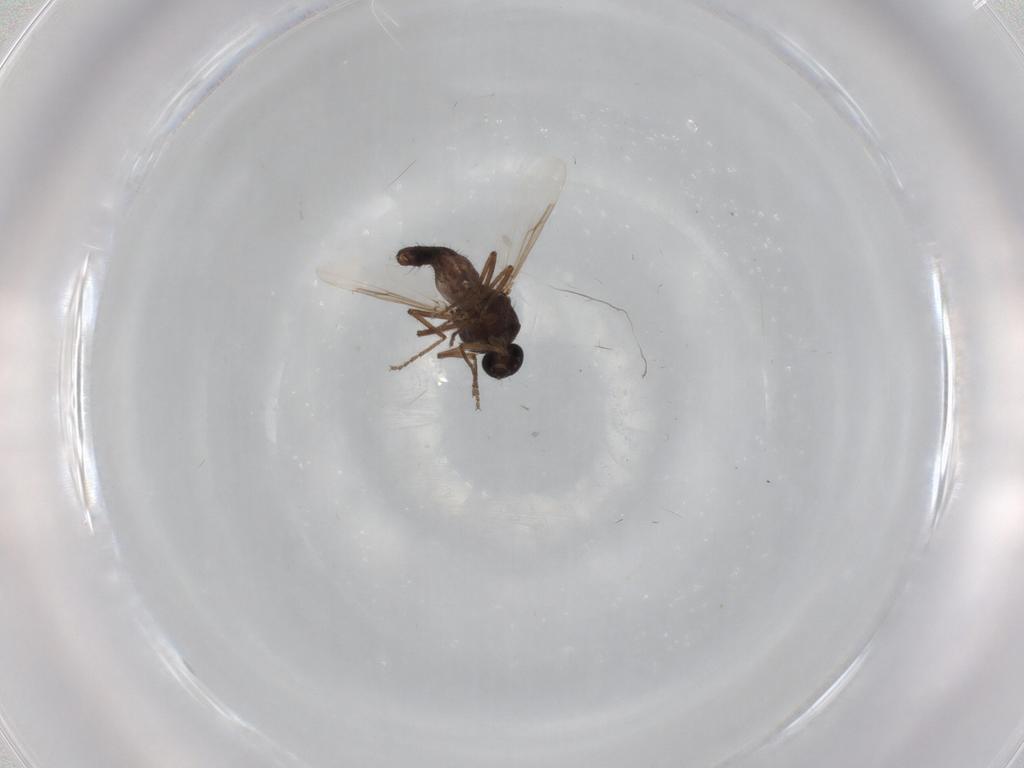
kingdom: Animalia
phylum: Arthropoda
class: Insecta
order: Diptera
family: Ceratopogonidae
